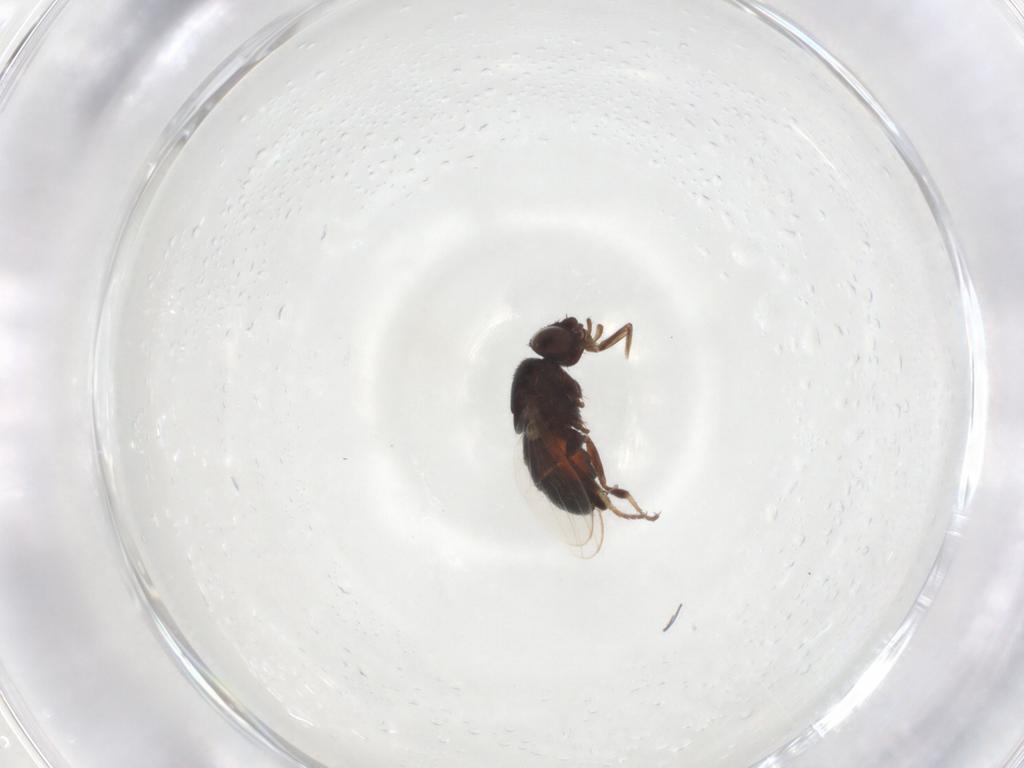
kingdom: Animalia
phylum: Arthropoda
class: Insecta
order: Diptera
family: Milichiidae
